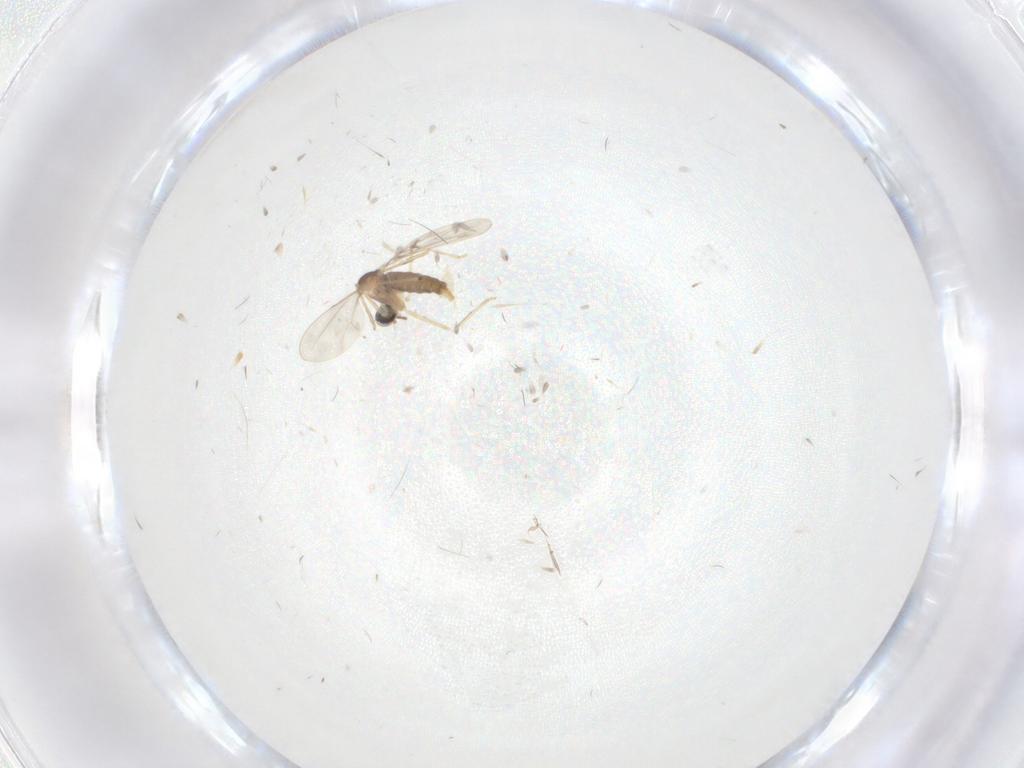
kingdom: Animalia
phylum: Arthropoda
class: Insecta
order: Diptera
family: Cecidomyiidae
